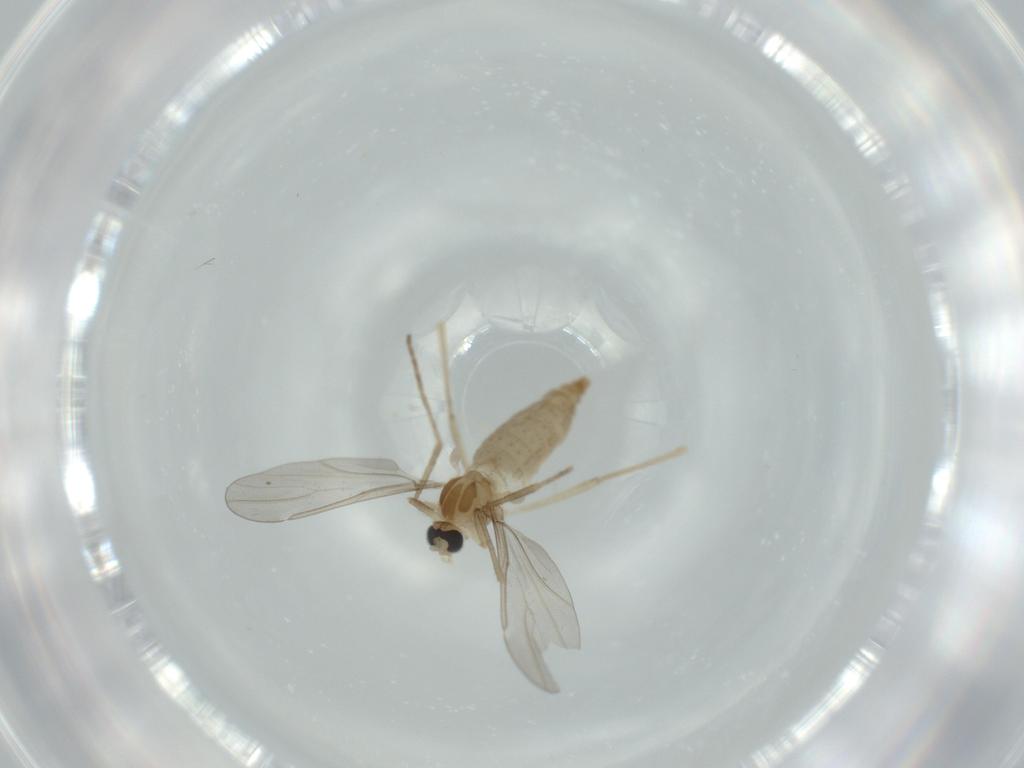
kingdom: Animalia
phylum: Arthropoda
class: Insecta
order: Diptera
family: Cecidomyiidae
